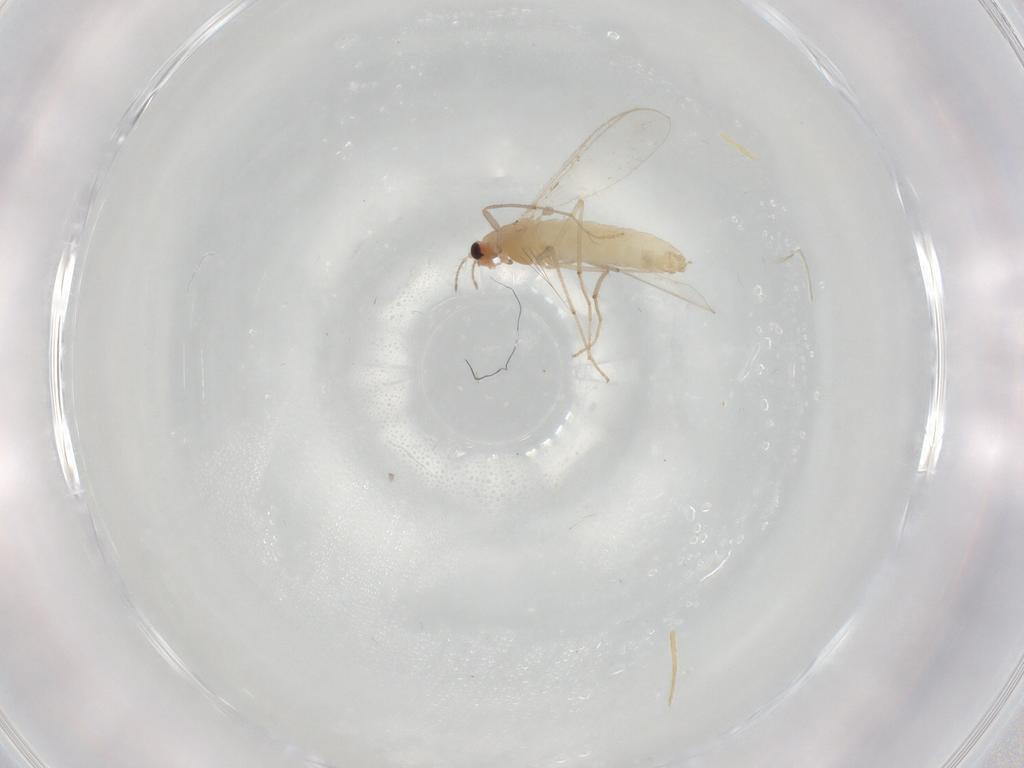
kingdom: Animalia
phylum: Arthropoda
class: Insecta
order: Diptera
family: Chironomidae
